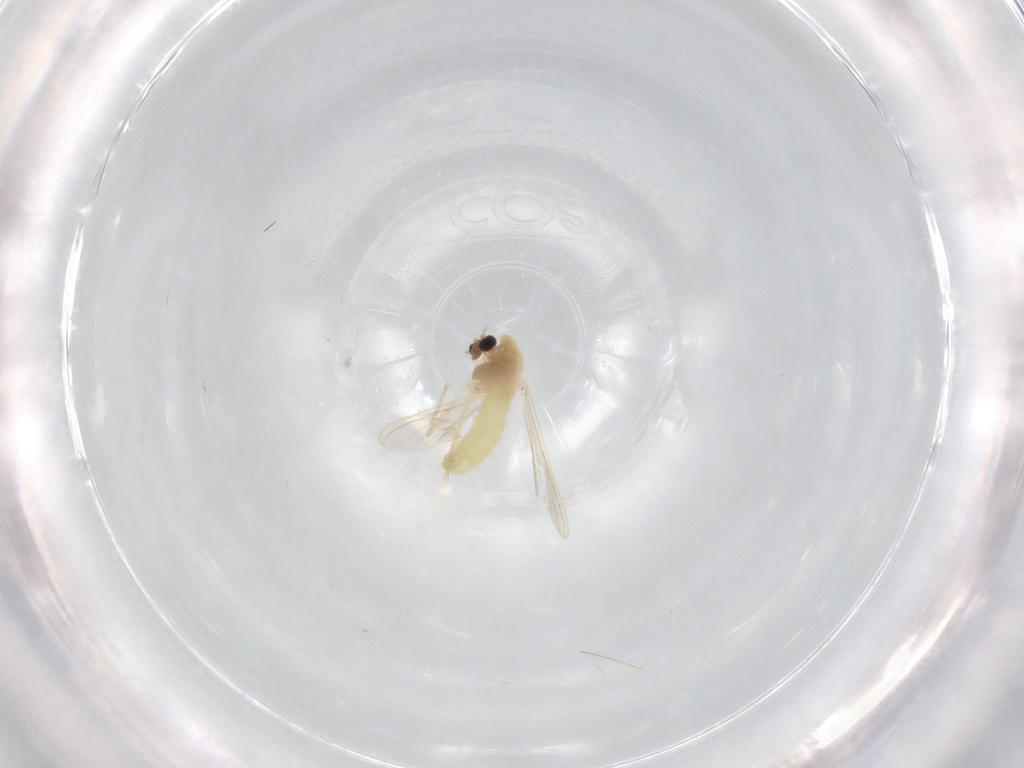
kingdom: Animalia
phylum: Arthropoda
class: Insecta
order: Diptera
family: Chironomidae
